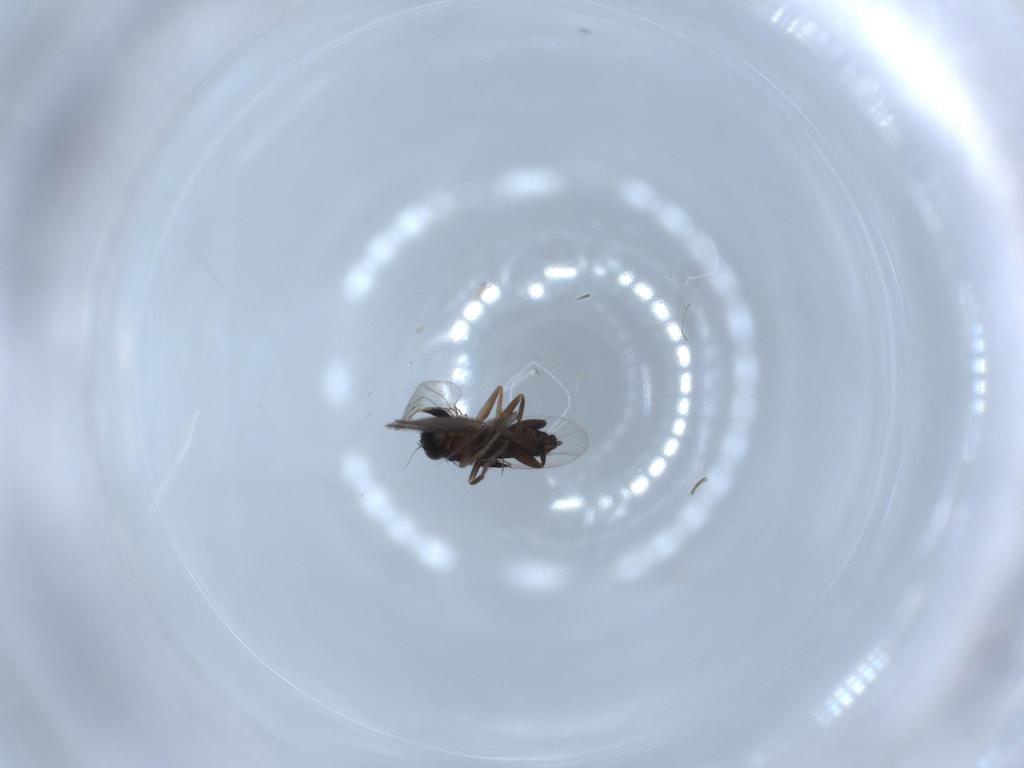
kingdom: Animalia
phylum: Arthropoda
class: Insecta
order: Diptera
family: Phoridae
